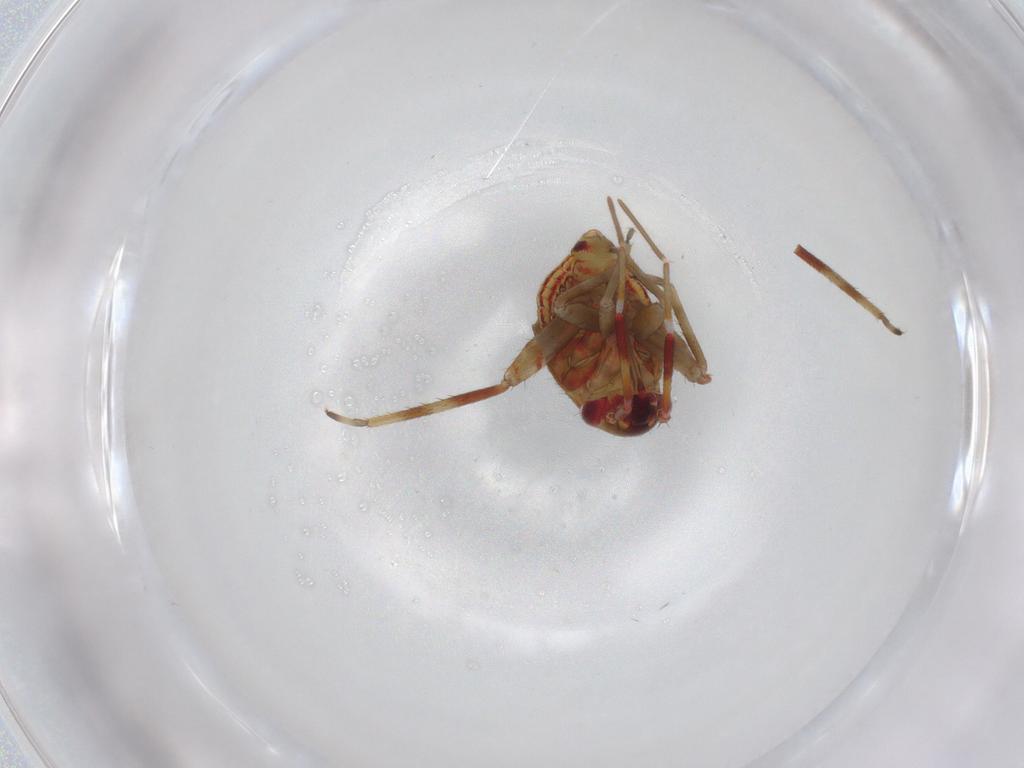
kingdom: Animalia
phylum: Arthropoda
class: Insecta
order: Hemiptera
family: Miridae
